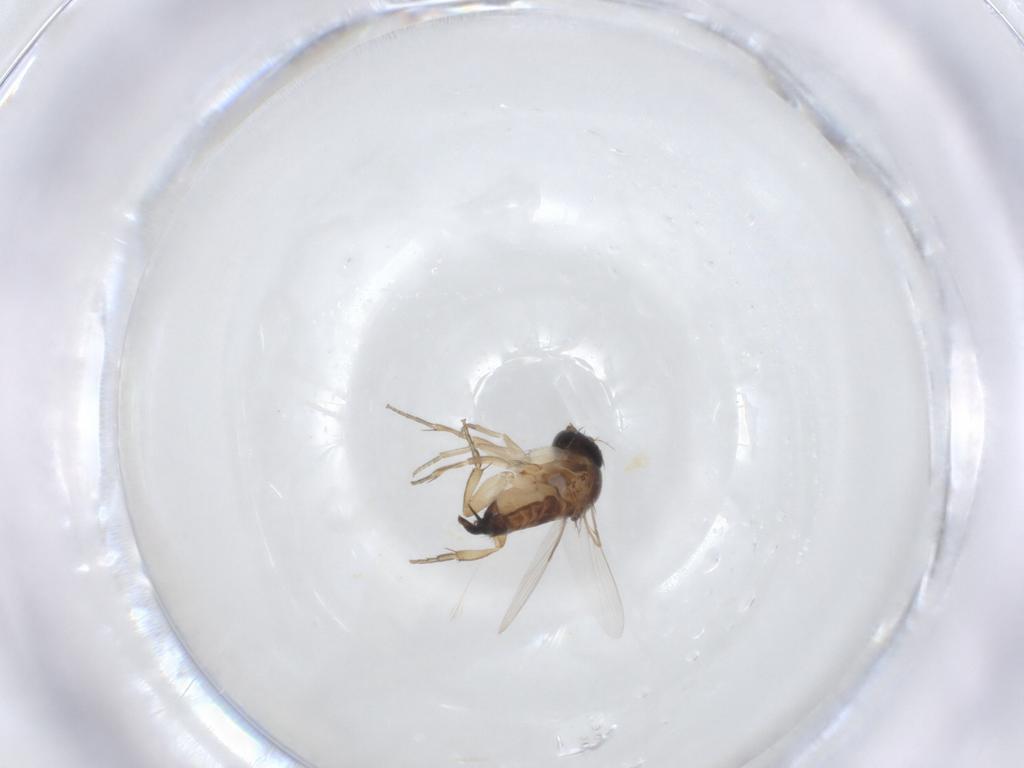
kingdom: Animalia
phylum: Arthropoda
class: Insecta
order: Diptera
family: Phoridae
